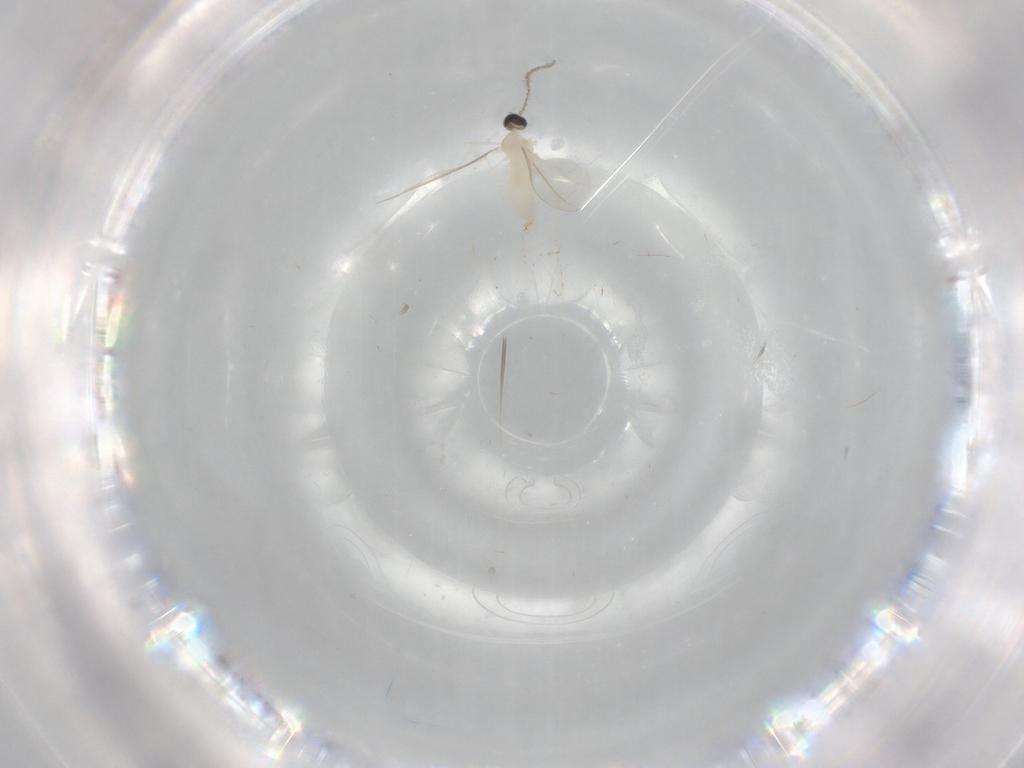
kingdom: Animalia
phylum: Arthropoda
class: Insecta
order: Diptera
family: Cecidomyiidae
